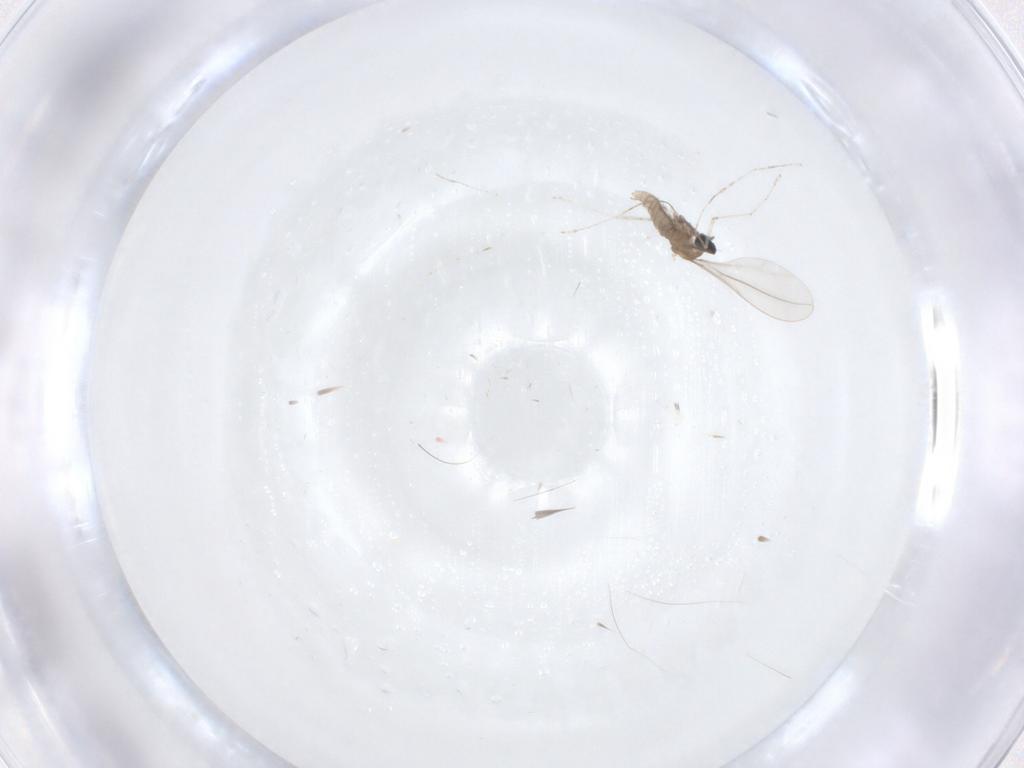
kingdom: Animalia
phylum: Arthropoda
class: Insecta
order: Diptera
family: Cecidomyiidae
